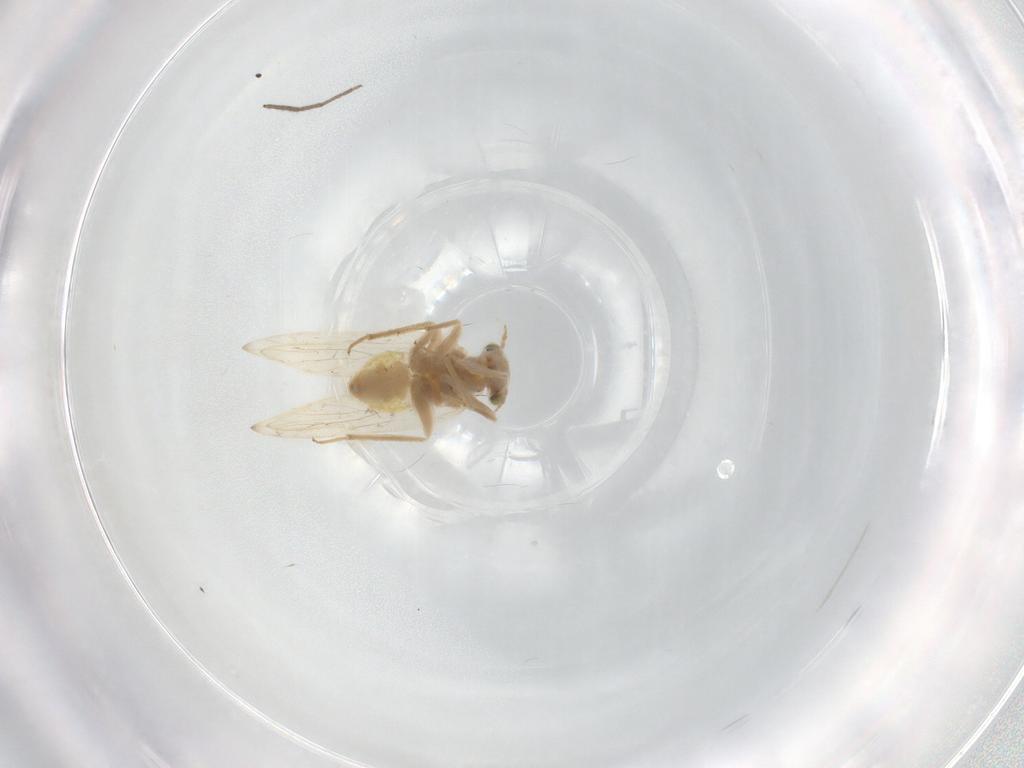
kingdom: Animalia
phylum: Arthropoda
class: Insecta
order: Psocodea
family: Lepidopsocidae
